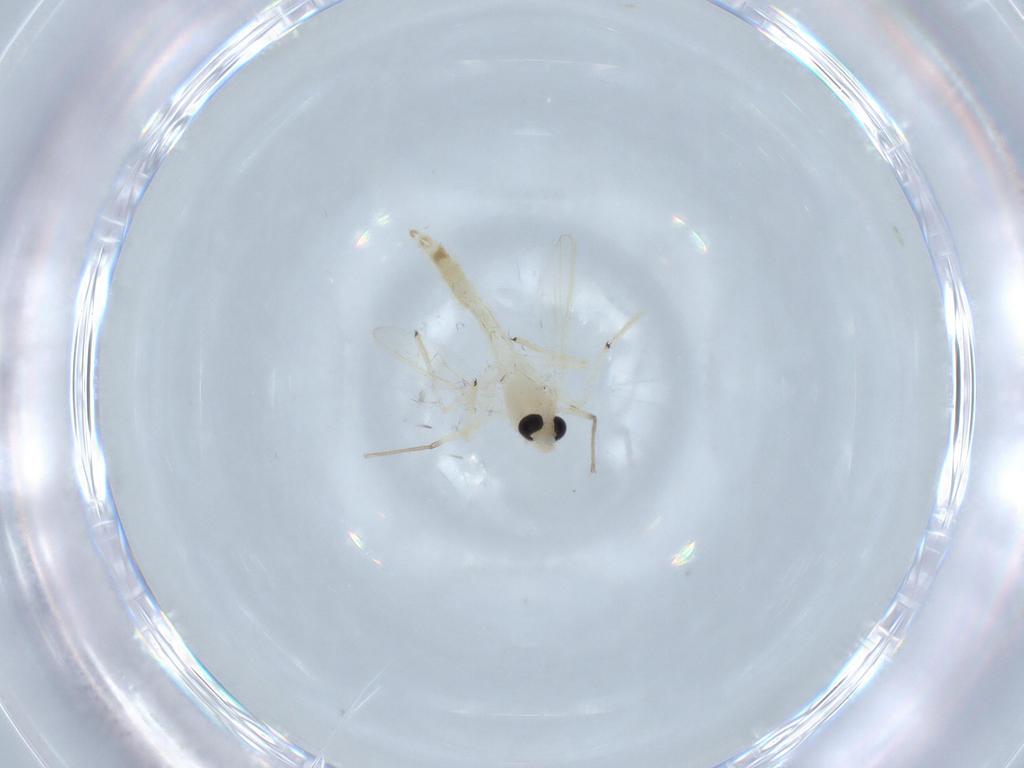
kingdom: Animalia
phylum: Arthropoda
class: Insecta
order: Diptera
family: Chironomidae
